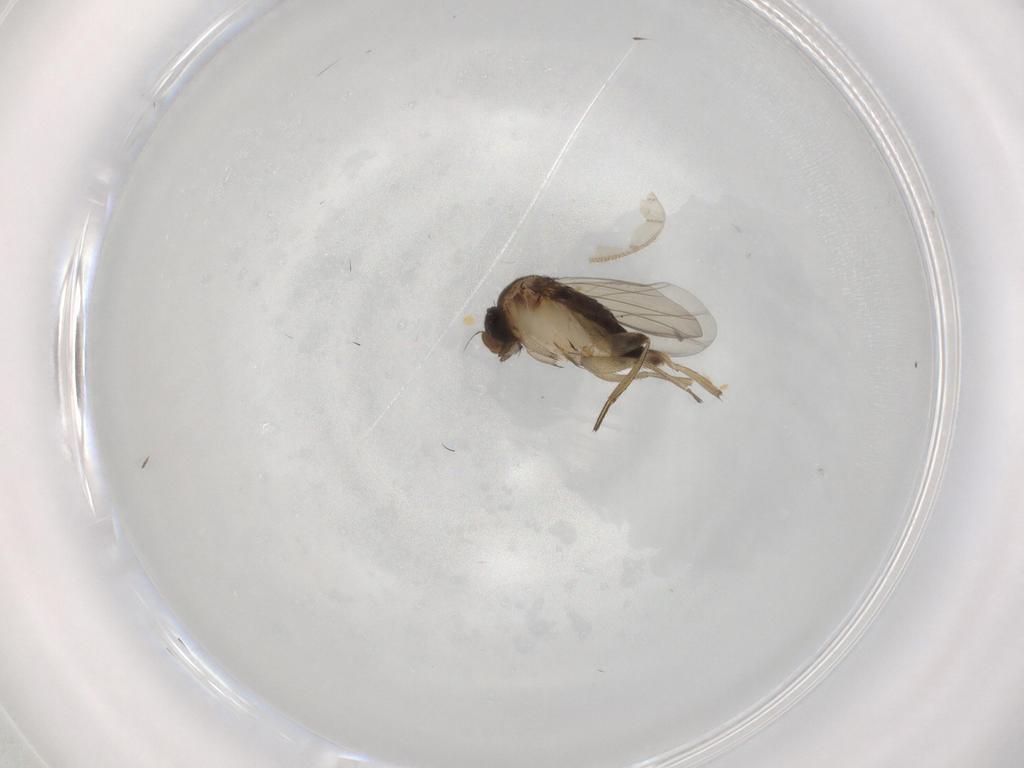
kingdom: Animalia
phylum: Arthropoda
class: Insecta
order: Diptera
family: Phoridae
